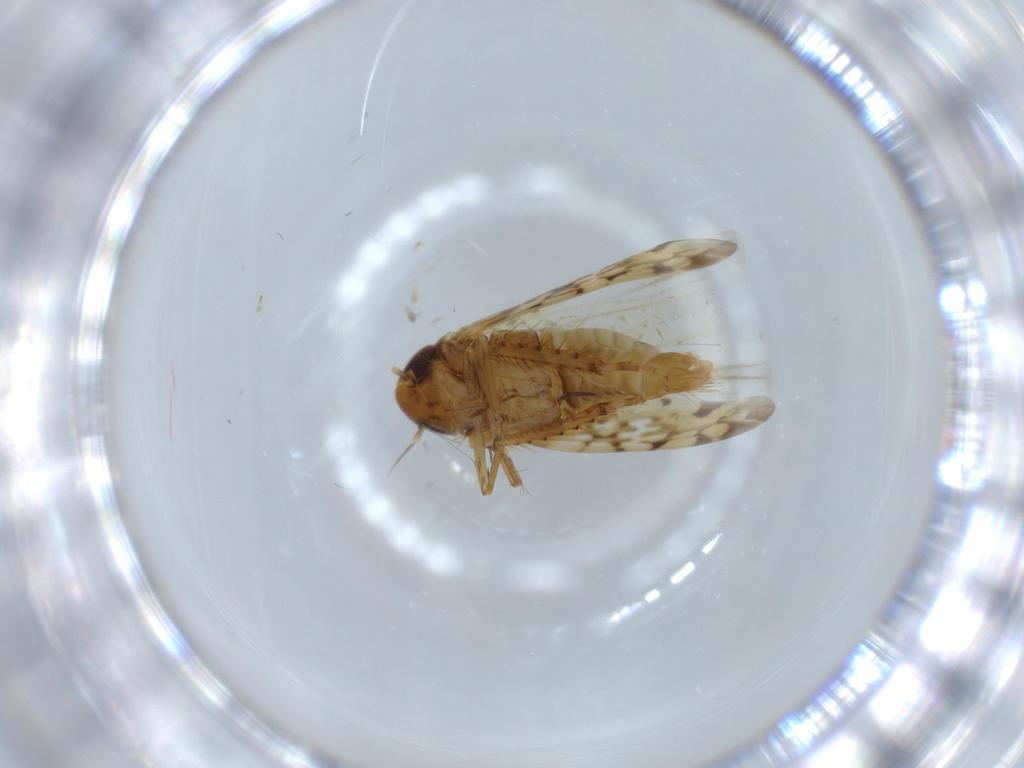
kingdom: Animalia
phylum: Arthropoda
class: Insecta
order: Hemiptera
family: Cicadellidae
